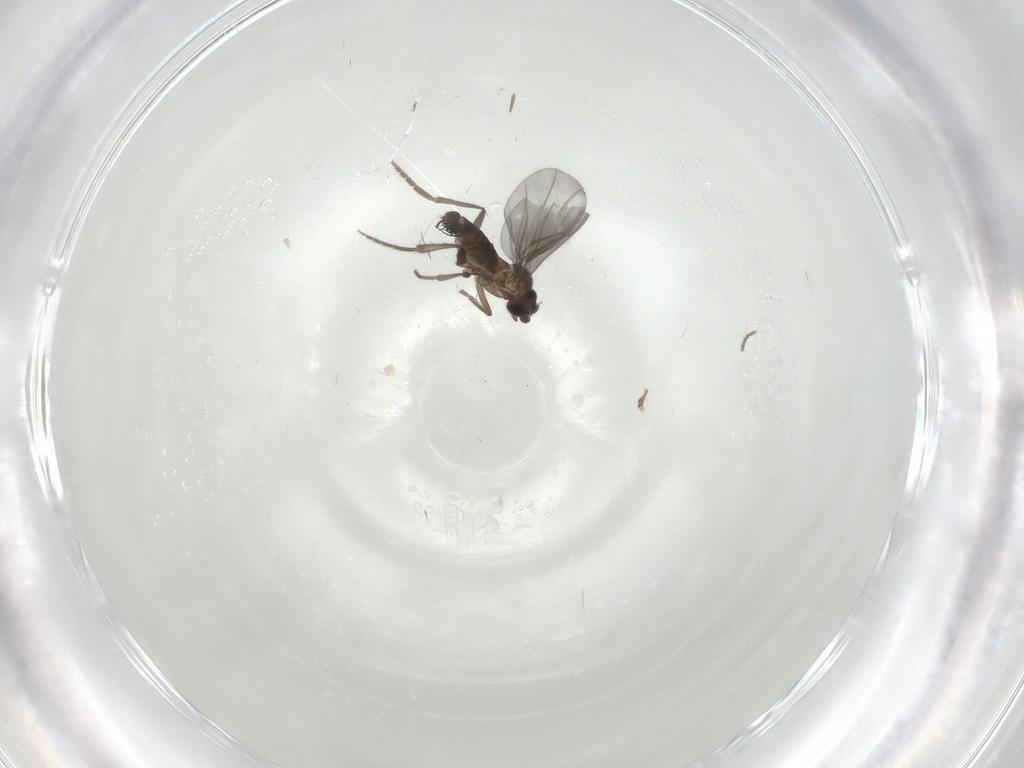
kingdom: Animalia
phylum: Arthropoda
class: Insecta
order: Diptera
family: Phoridae
